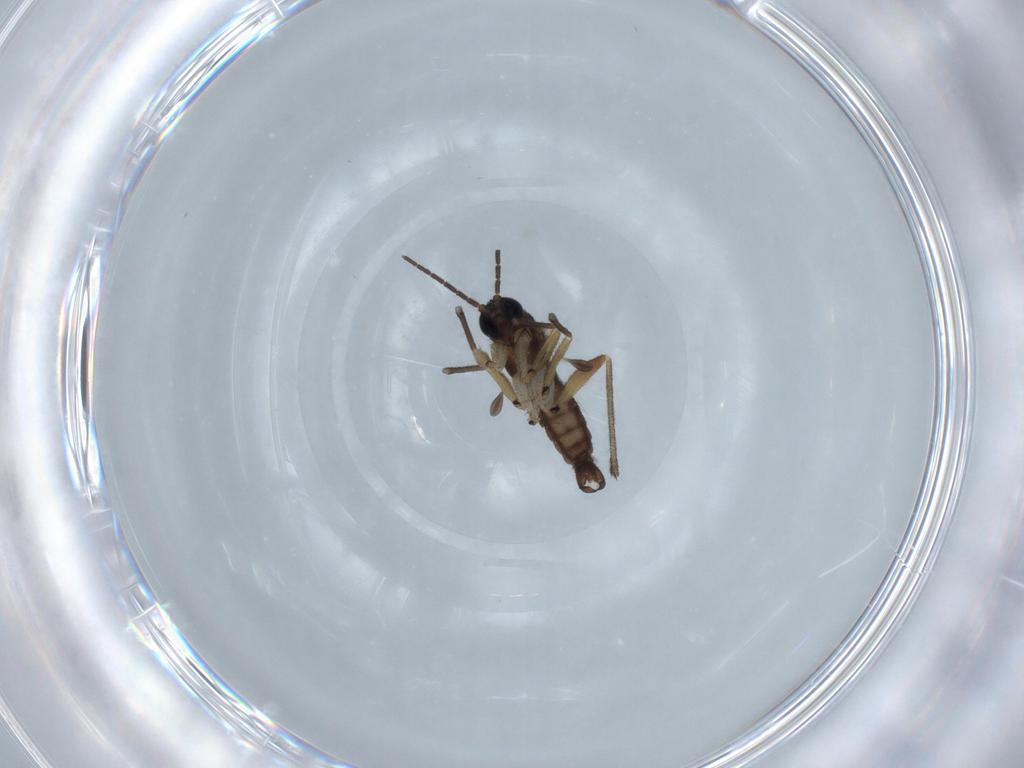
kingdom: Animalia
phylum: Arthropoda
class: Insecta
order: Diptera
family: Sciaridae
